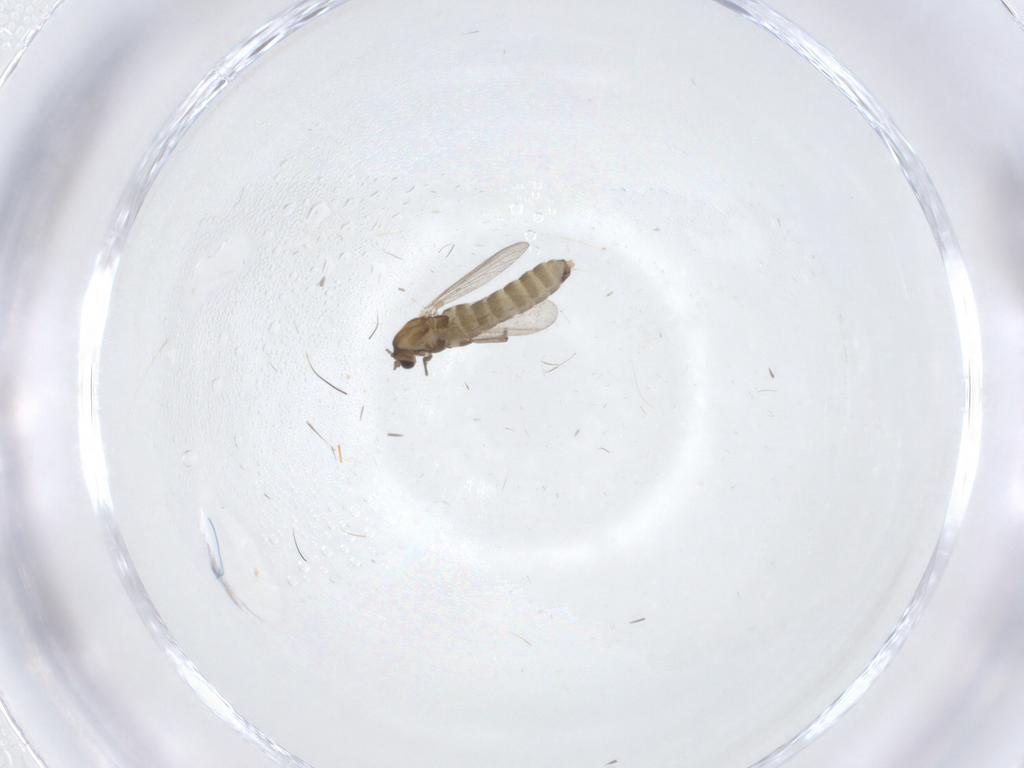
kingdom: Animalia
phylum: Arthropoda
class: Insecta
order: Diptera
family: Chironomidae
